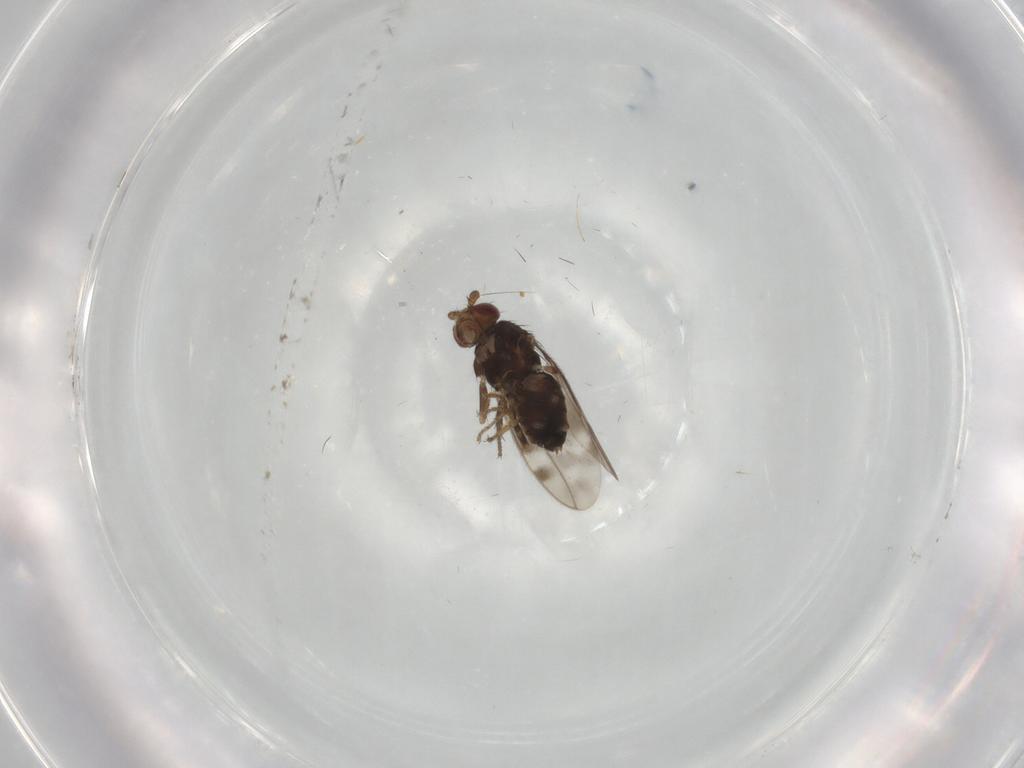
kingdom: Animalia
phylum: Arthropoda
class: Insecta
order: Diptera
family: Sphaeroceridae
